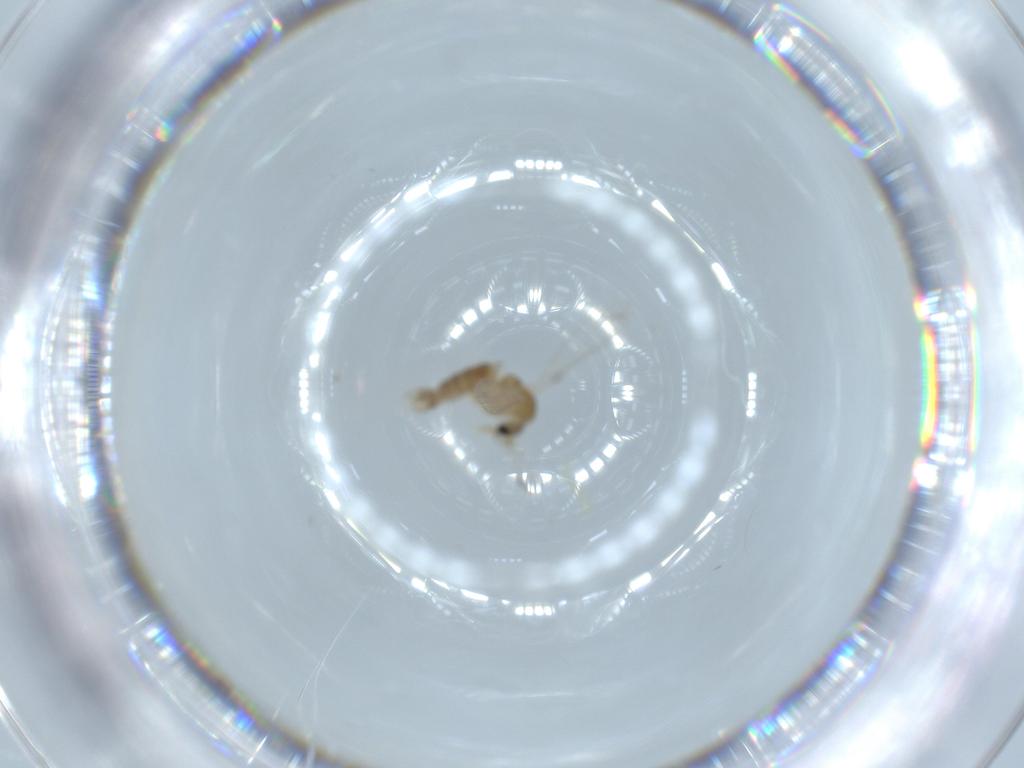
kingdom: Animalia
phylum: Arthropoda
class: Insecta
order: Diptera
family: Psychodidae
